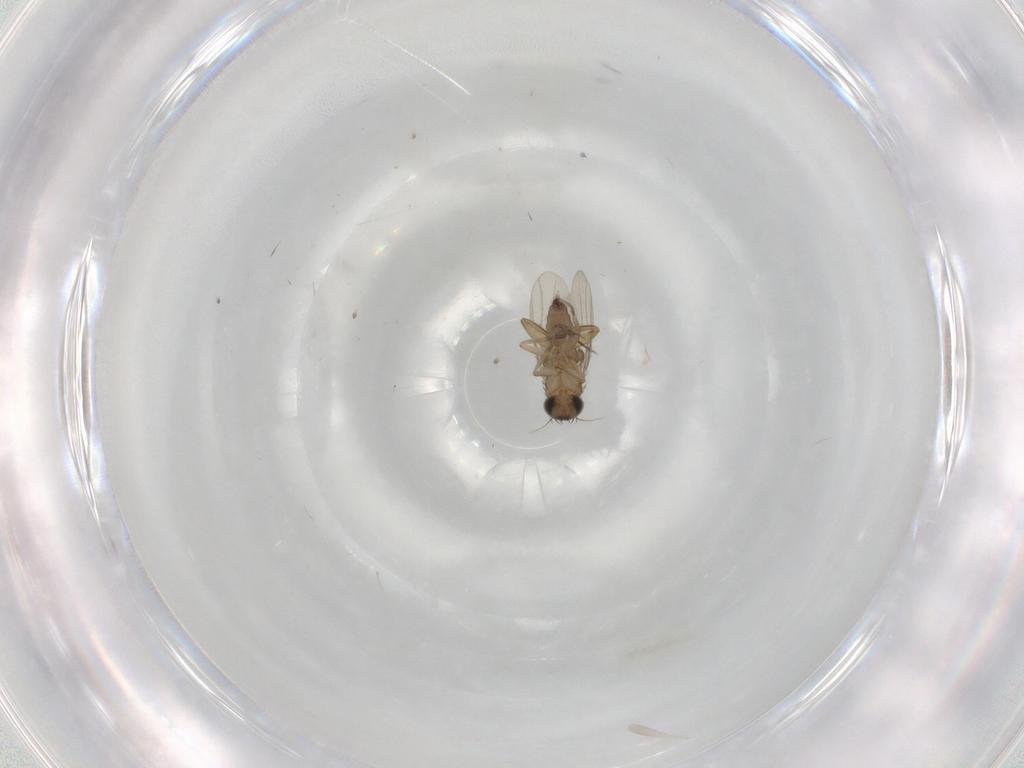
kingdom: Animalia
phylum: Arthropoda
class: Insecta
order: Diptera
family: Phoridae
